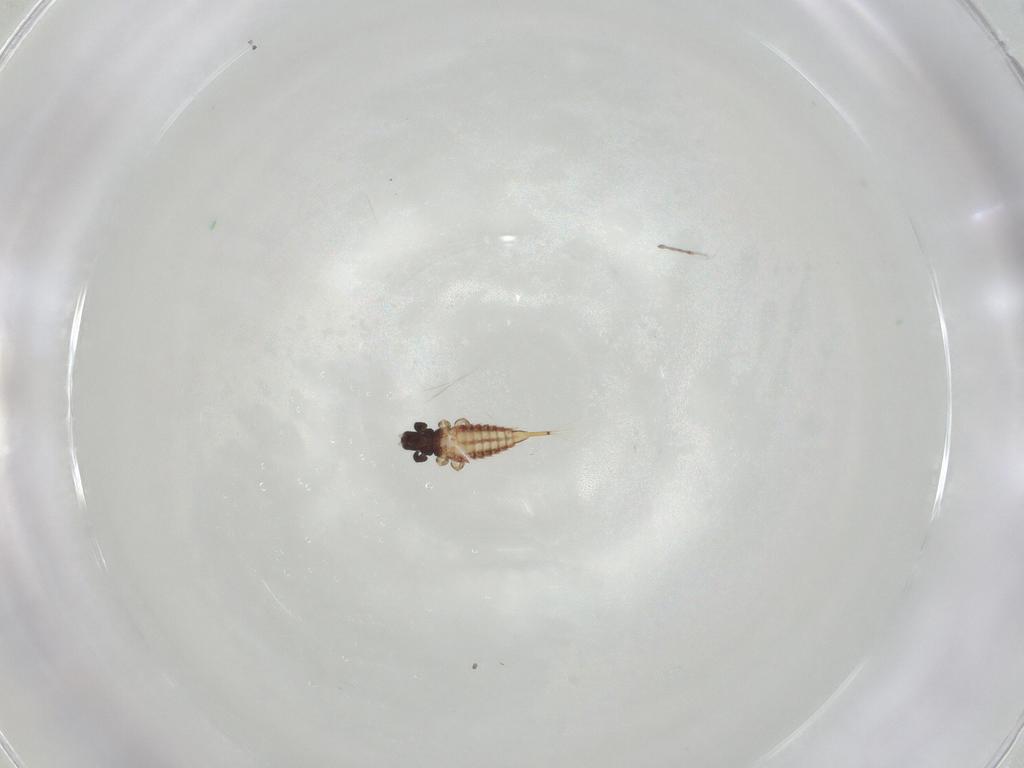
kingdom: Animalia
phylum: Arthropoda
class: Insecta
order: Thysanoptera
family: Phlaeothripidae
